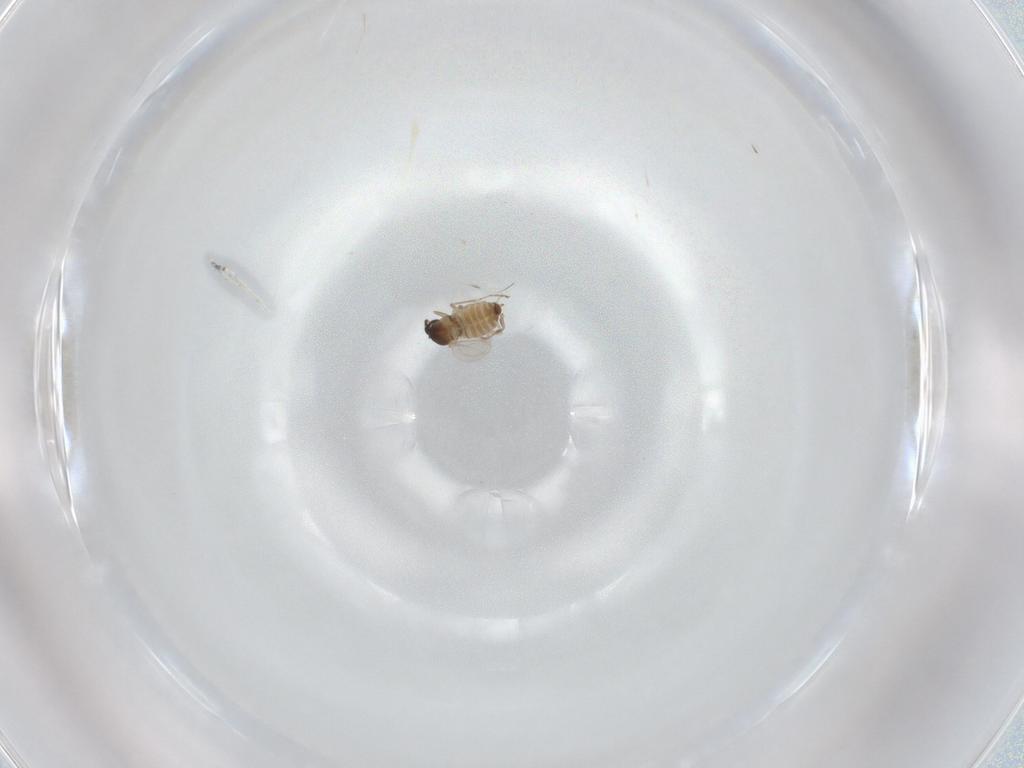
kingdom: Animalia
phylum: Arthropoda
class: Insecta
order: Diptera
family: Cecidomyiidae
